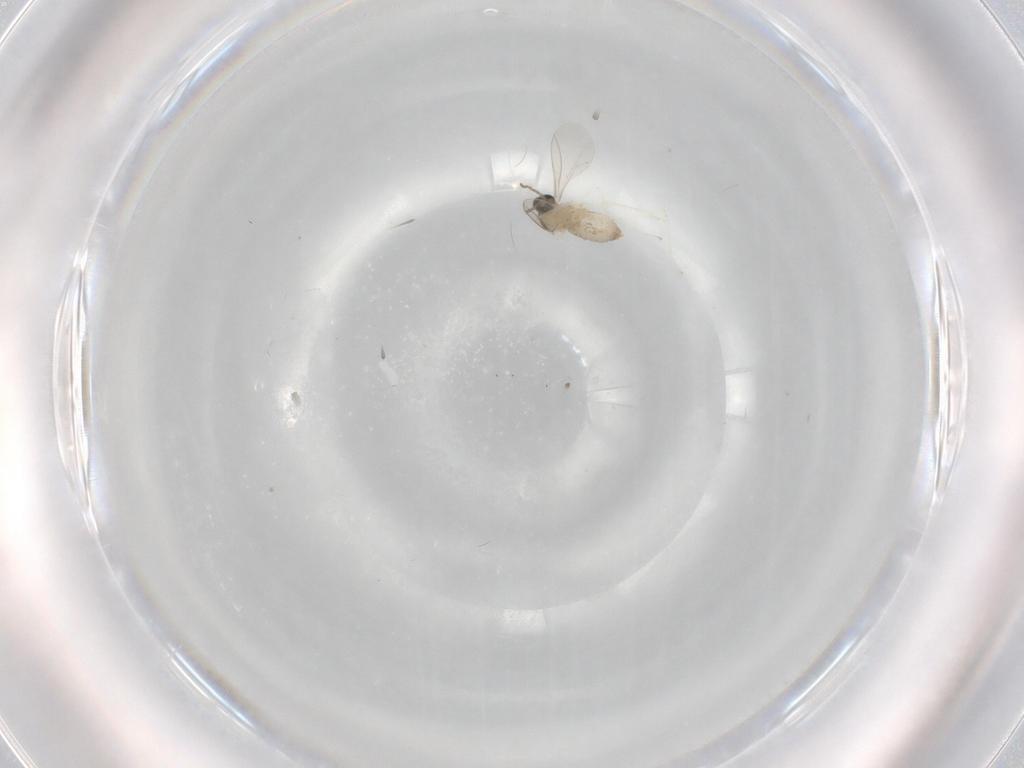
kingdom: Animalia
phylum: Arthropoda
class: Insecta
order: Diptera
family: Cecidomyiidae
